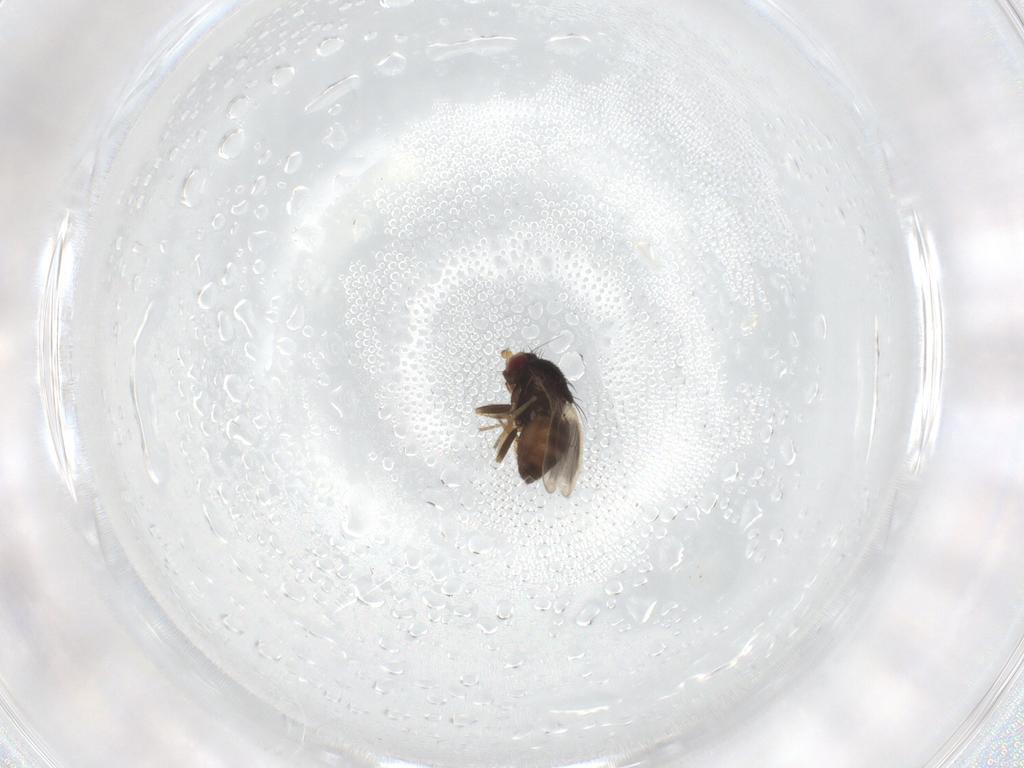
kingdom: Animalia
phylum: Arthropoda
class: Insecta
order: Diptera
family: Sphaeroceridae
